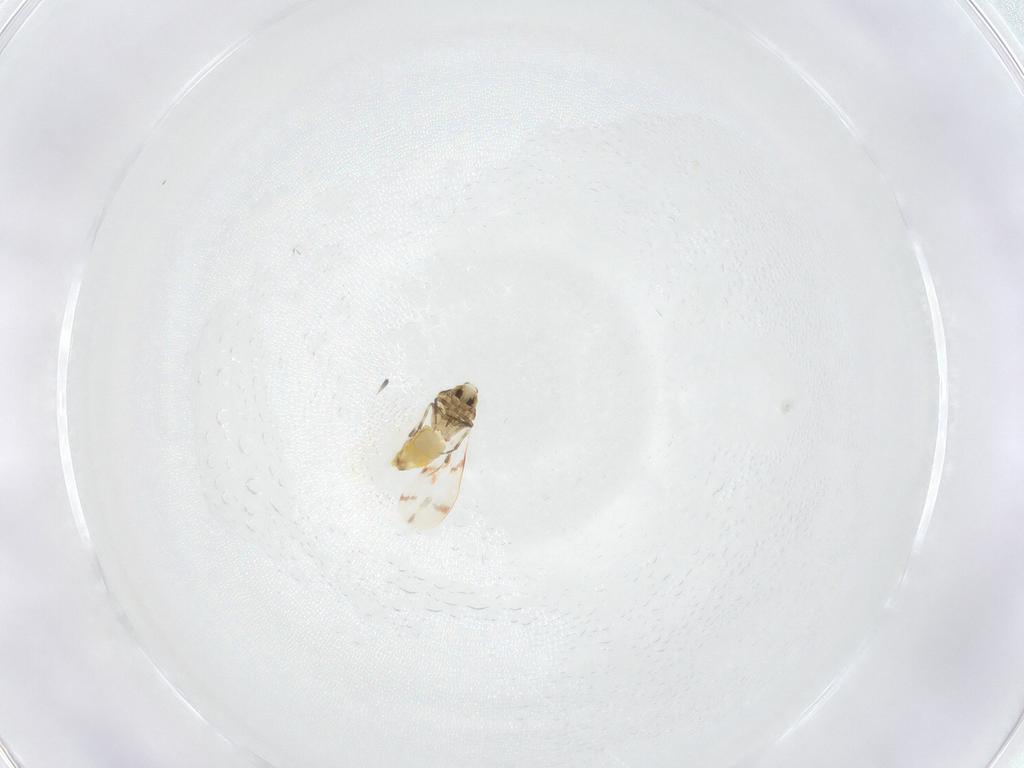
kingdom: Animalia
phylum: Arthropoda
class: Insecta
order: Hemiptera
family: Aleyrodidae
